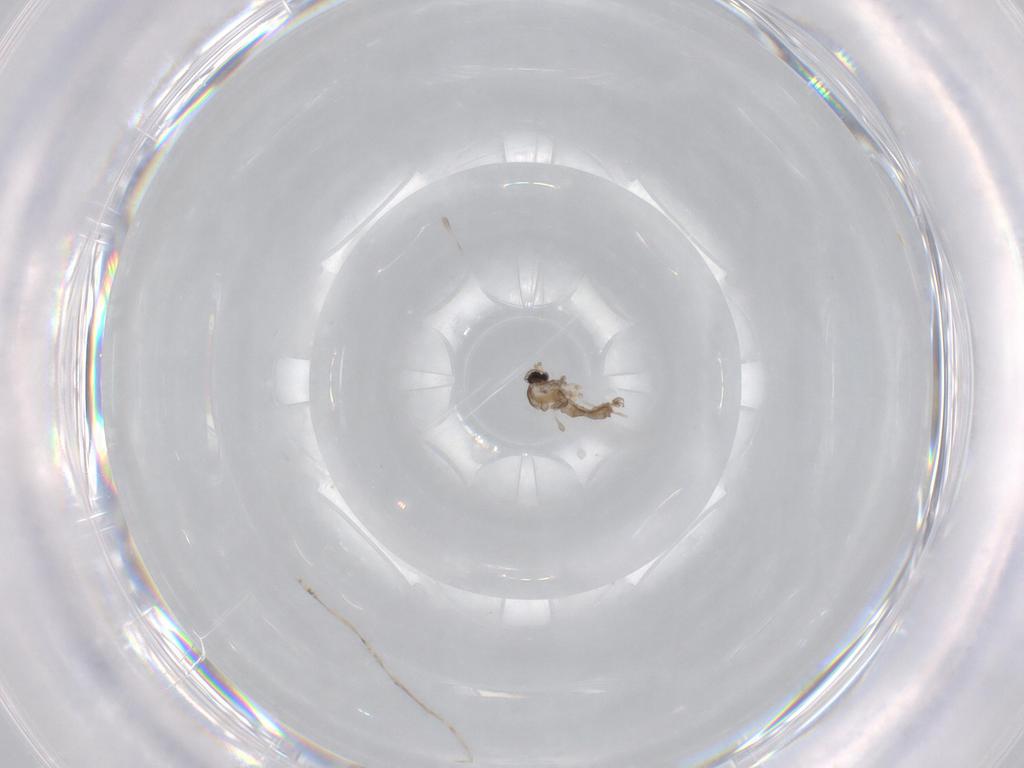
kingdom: Animalia
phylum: Arthropoda
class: Insecta
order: Diptera
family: Cecidomyiidae
